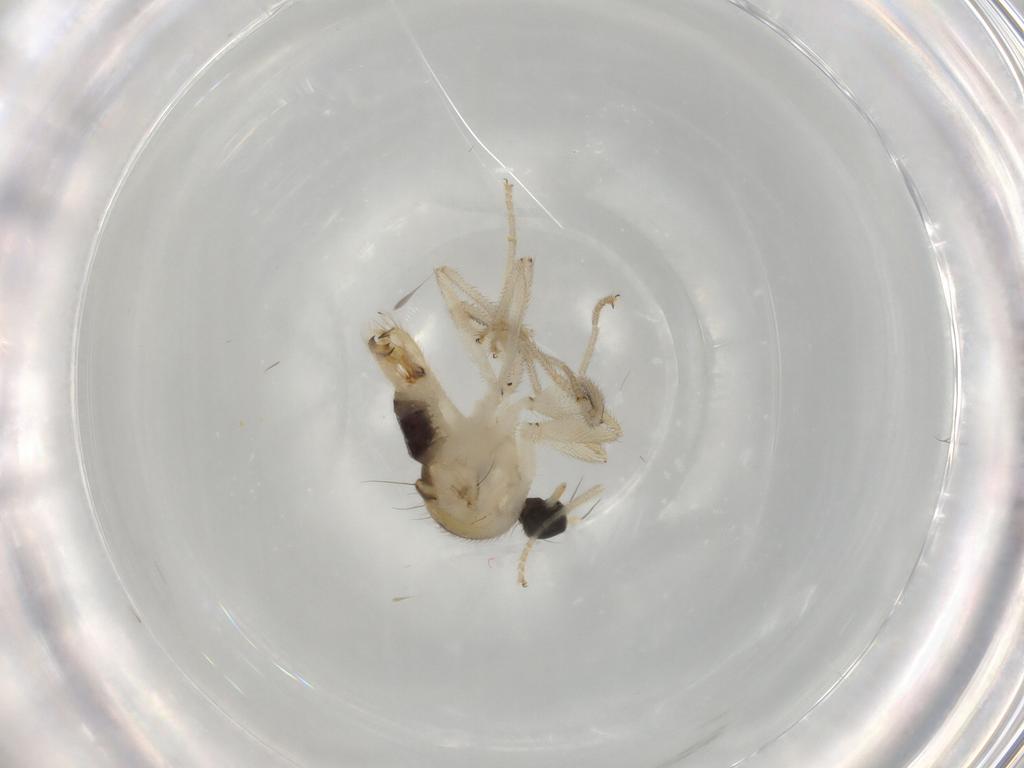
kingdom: Animalia
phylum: Arthropoda
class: Insecta
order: Diptera
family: Hybotidae
